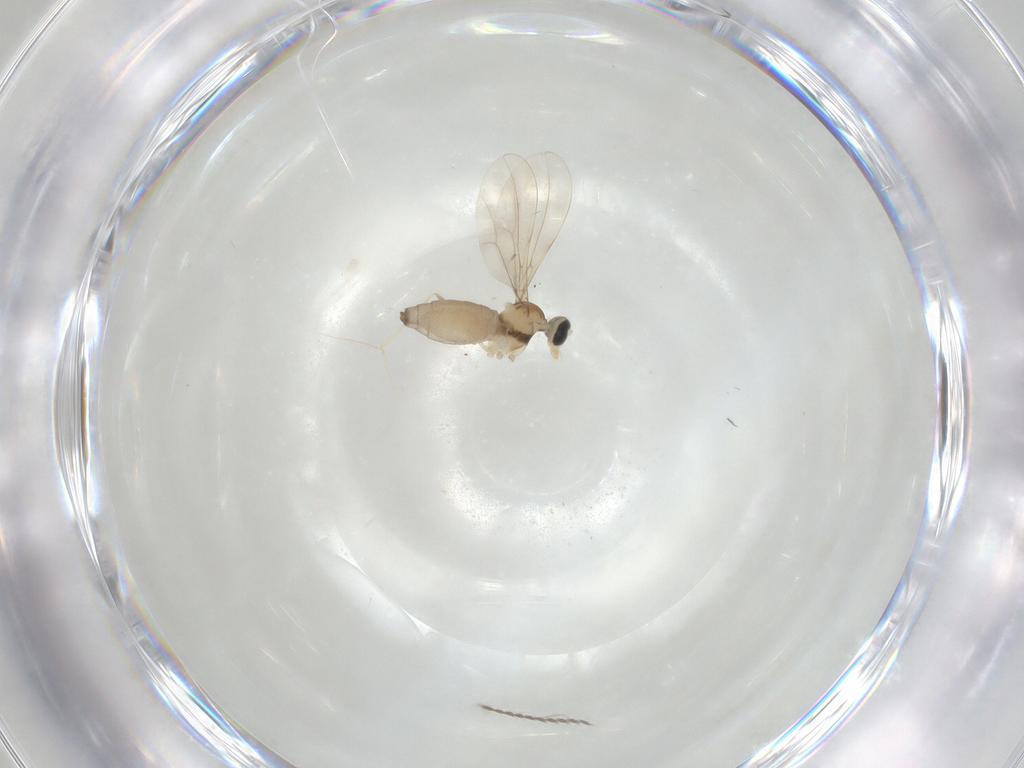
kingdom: Animalia
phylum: Arthropoda
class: Insecta
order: Diptera
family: Cecidomyiidae
